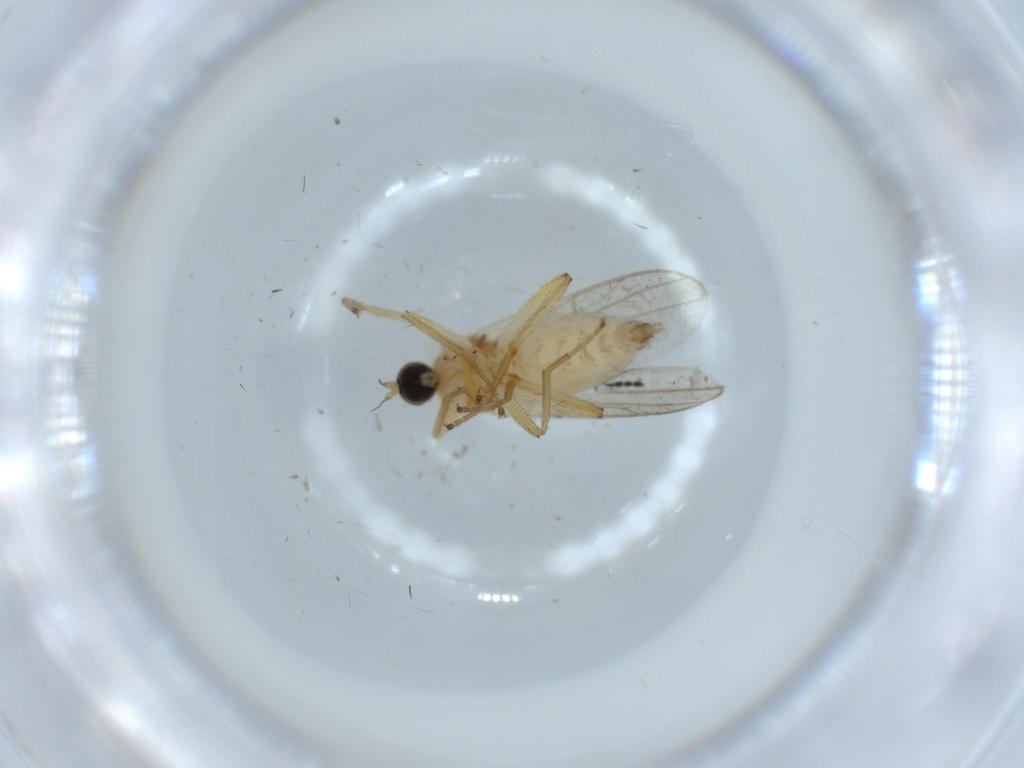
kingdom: Animalia
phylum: Arthropoda
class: Insecta
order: Diptera
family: Hybotidae
